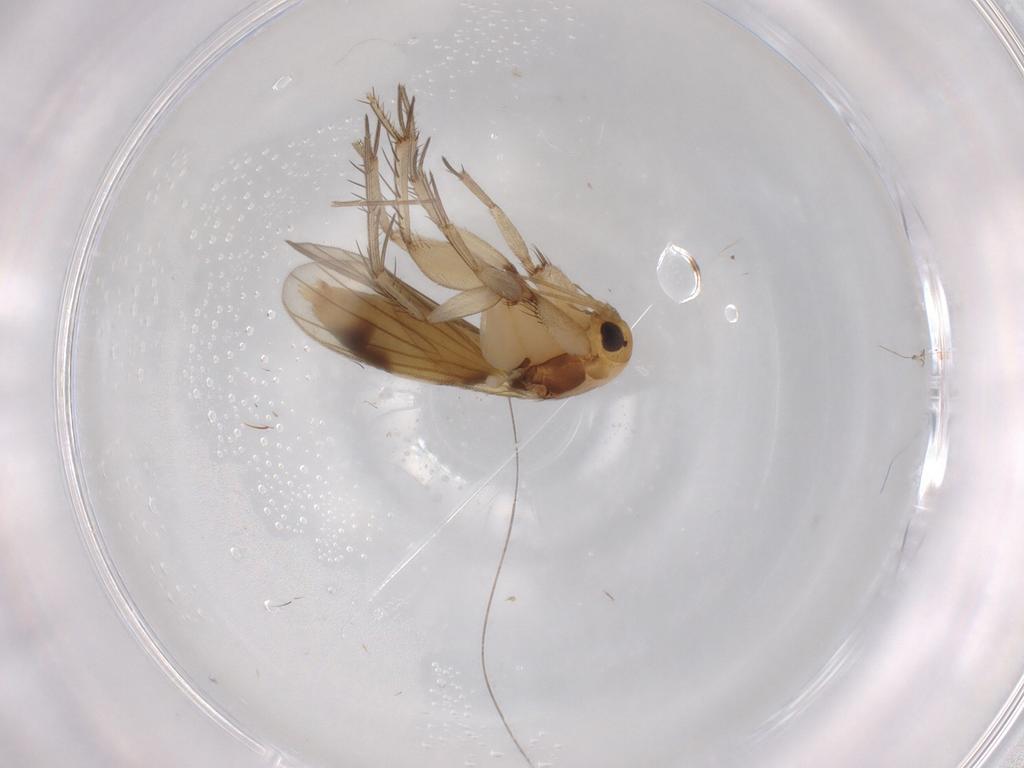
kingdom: Animalia
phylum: Arthropoda
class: Insecta
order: Diptera
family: Mycetophilidae
